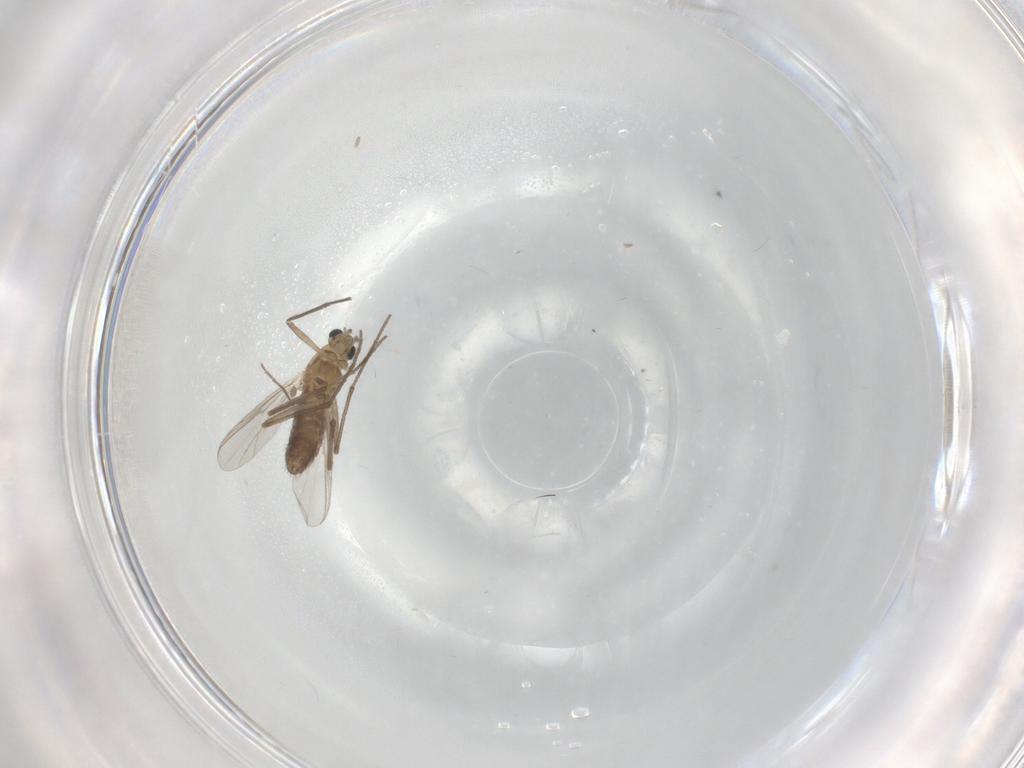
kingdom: Animalia
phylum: Arthropoda
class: Insecta
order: Diptera
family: Chironomidae
